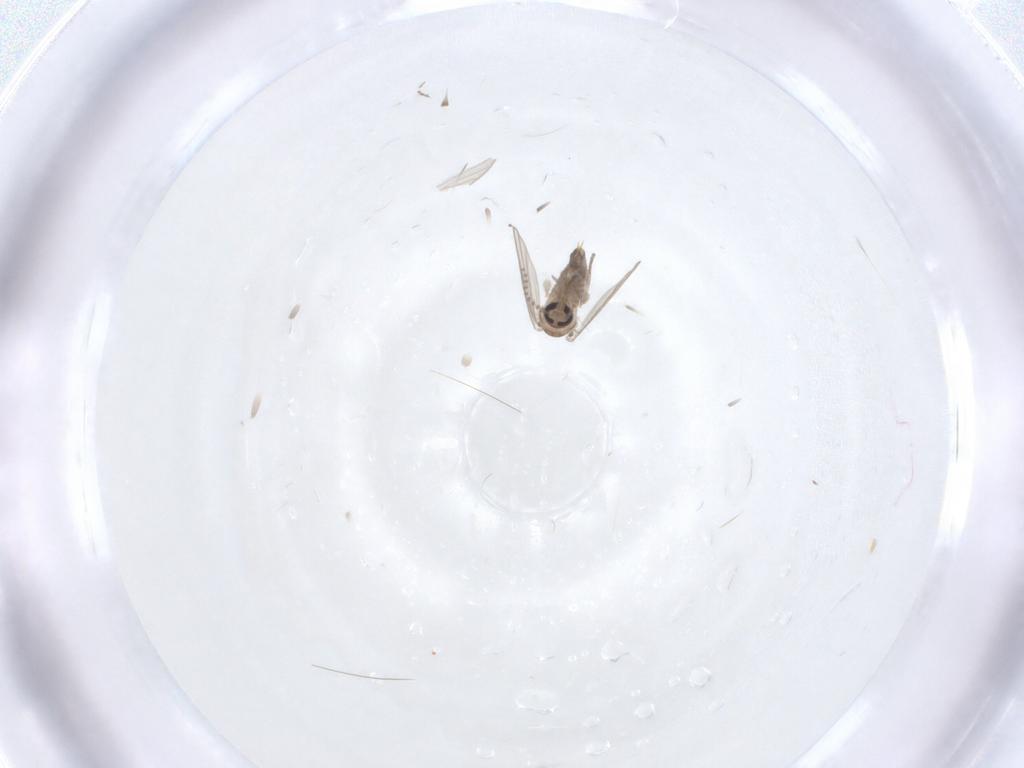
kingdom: Animalia
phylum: Arthropoda
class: Insecta
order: Diptera
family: Psychodidae
